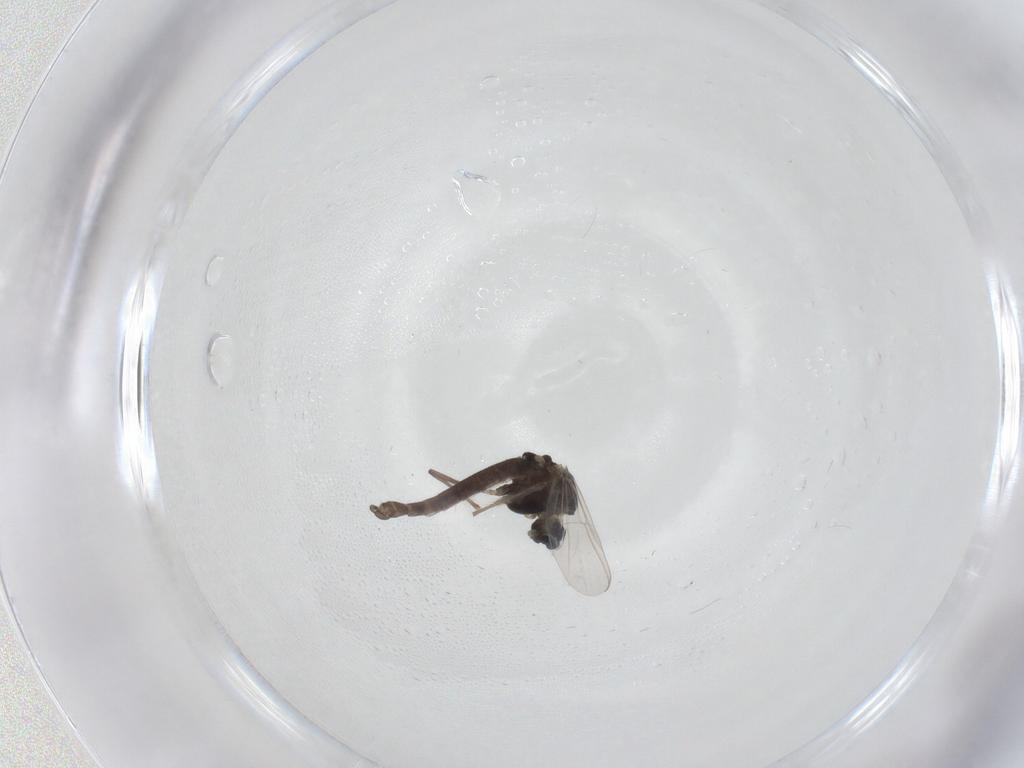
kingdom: Animalia
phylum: Arthropoda
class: Insecta
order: Diptera
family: Chironomidae
